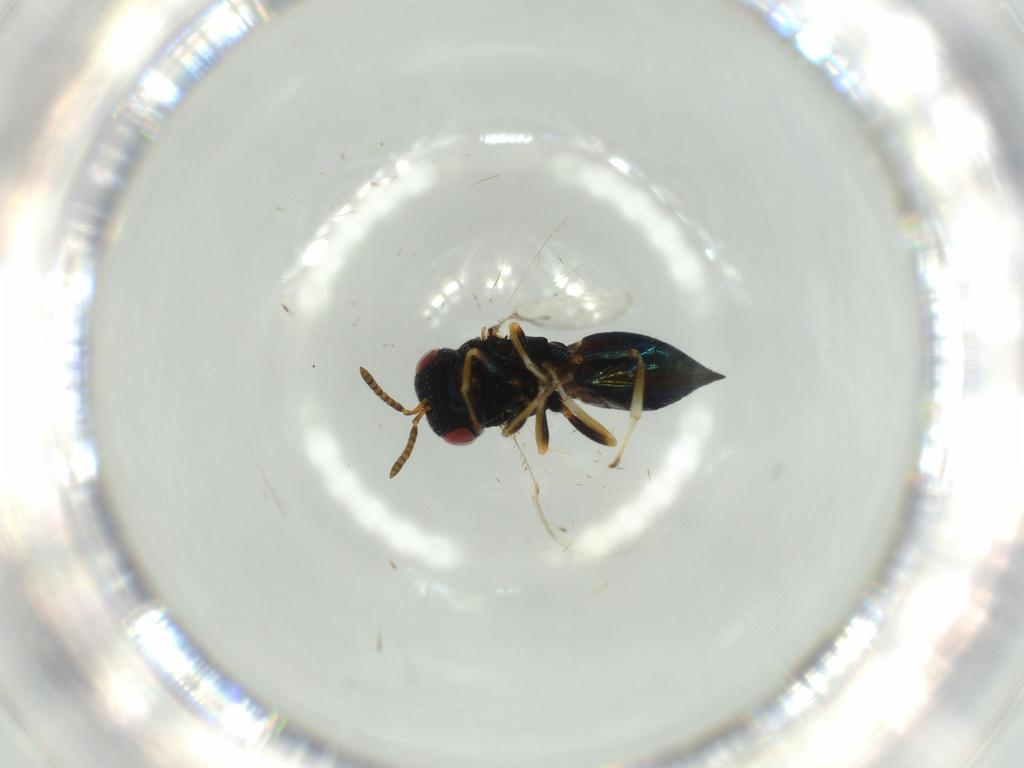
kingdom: Animalia
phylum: Arthropoda
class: Insecta
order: Hymenoptera
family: Pteromalidae
